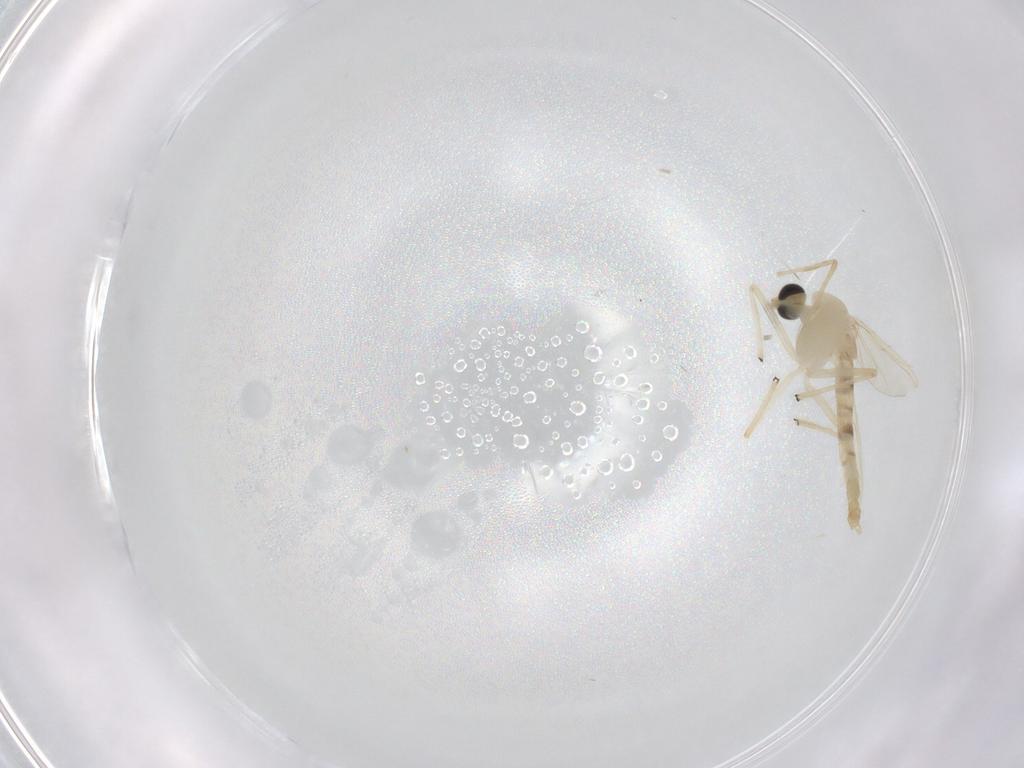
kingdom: Animalia
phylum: Arthropoda
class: Insecta
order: Diptera
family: Chironomidae
